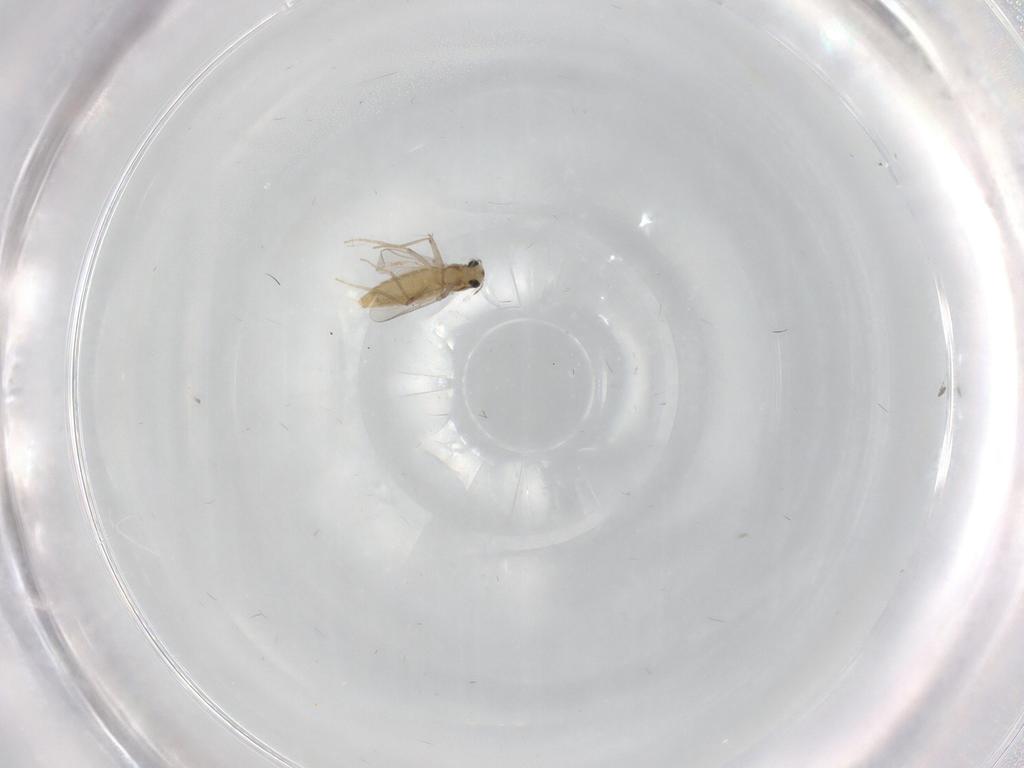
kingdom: Animalia
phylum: Arthropoda
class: Insecta
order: Diptera
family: Chironomidae
